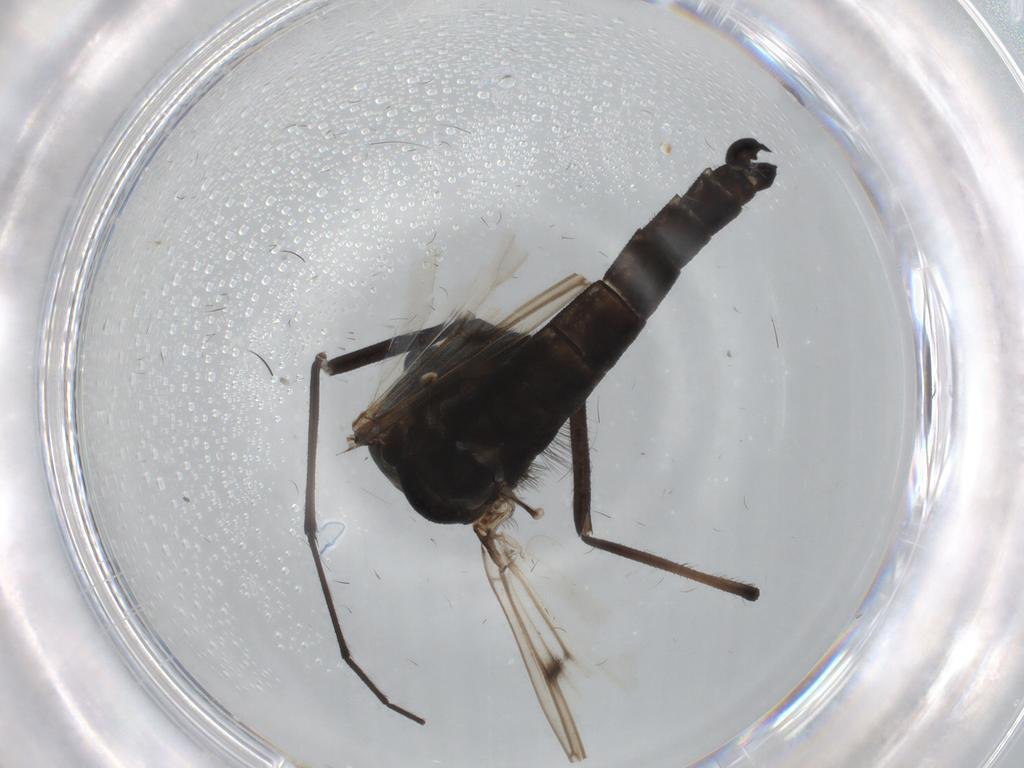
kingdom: Animalia
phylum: Arthropoda
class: Insecta
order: Diptera
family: Chironomidae
